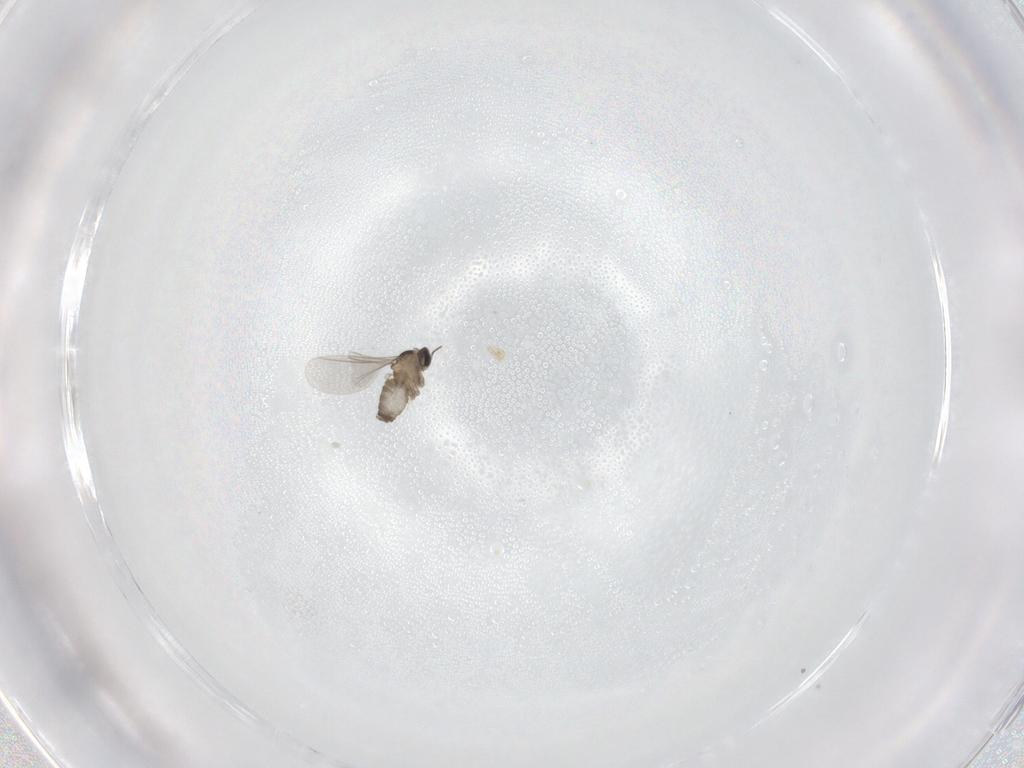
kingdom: Animalia
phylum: Arthropoda
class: Insecta
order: Diptera
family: Cecidomyiidae
